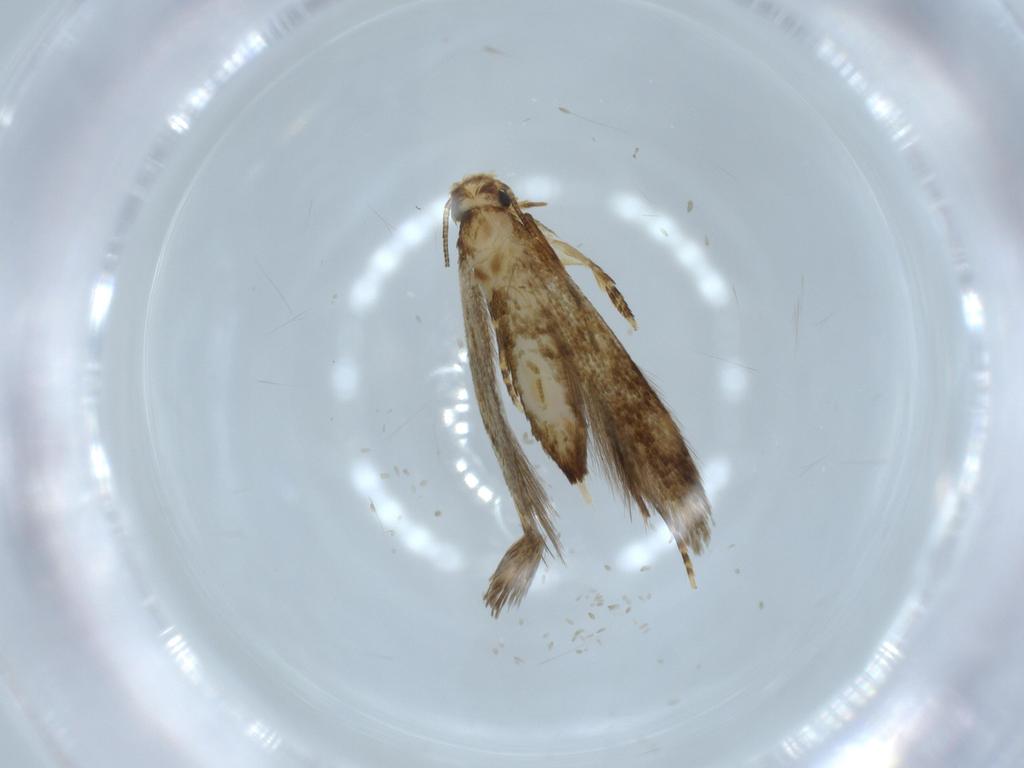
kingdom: Animalia
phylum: Arthropoda
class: Insecta
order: Lepidoptera
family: Tineidae
